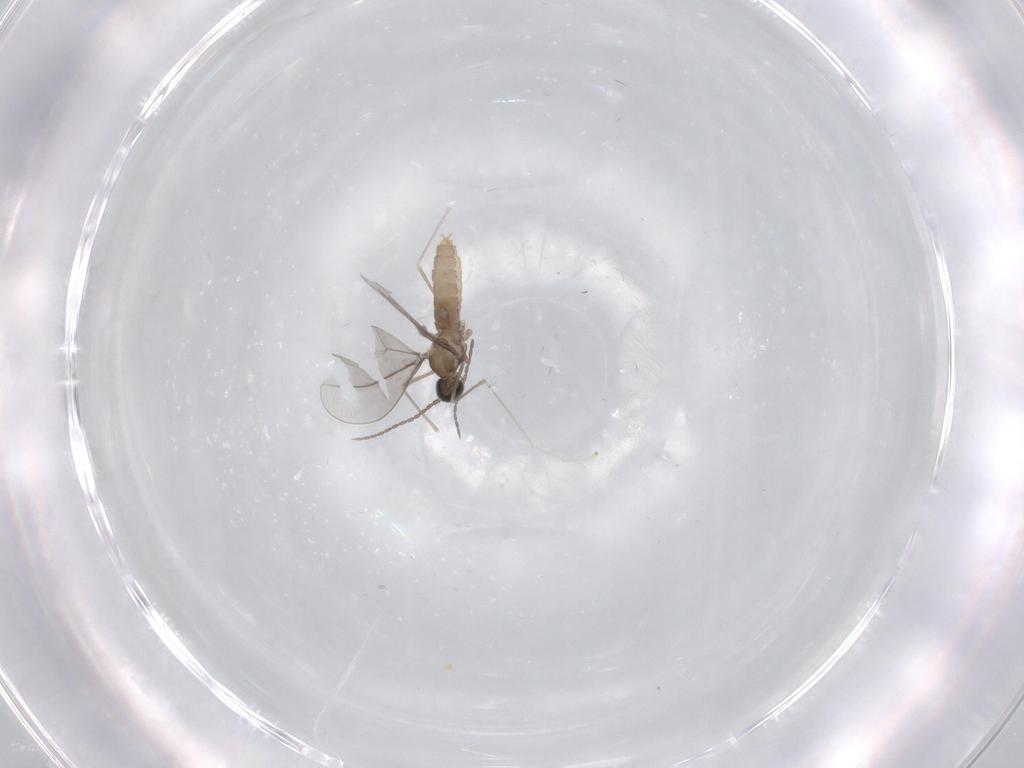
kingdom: Animalia
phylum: Arthropoda
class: Insecta
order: Diptera
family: Cecidomyiidae
